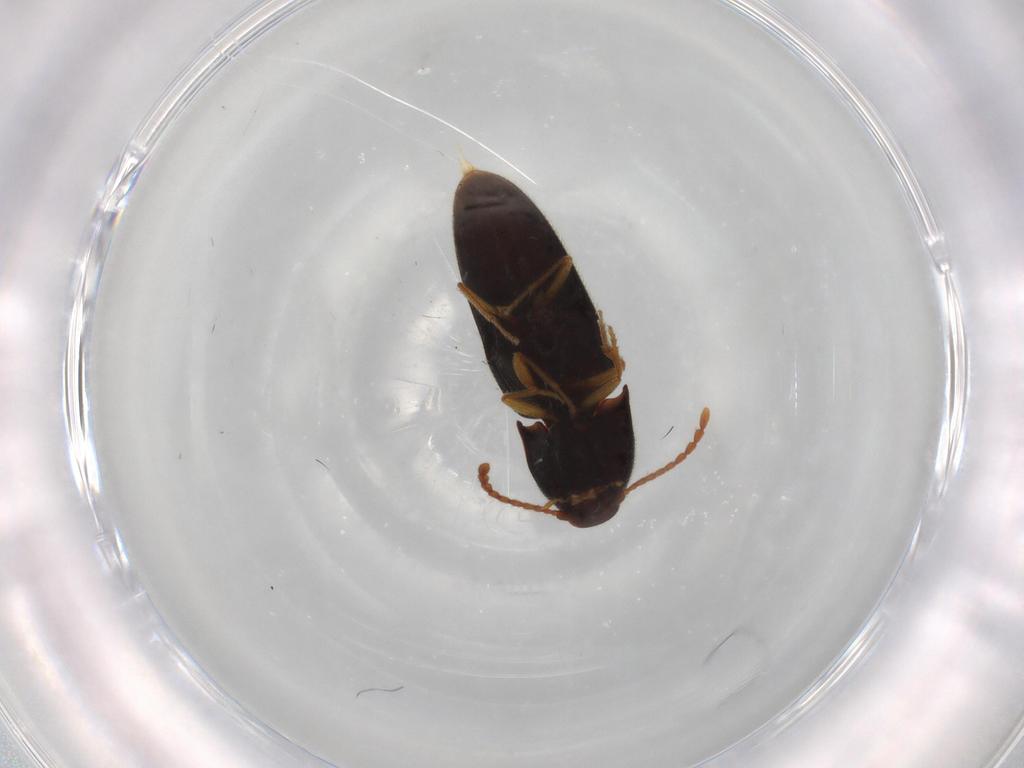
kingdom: Animalia
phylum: Arthropoda
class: Insecta
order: Coleoptera
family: Elateridae
